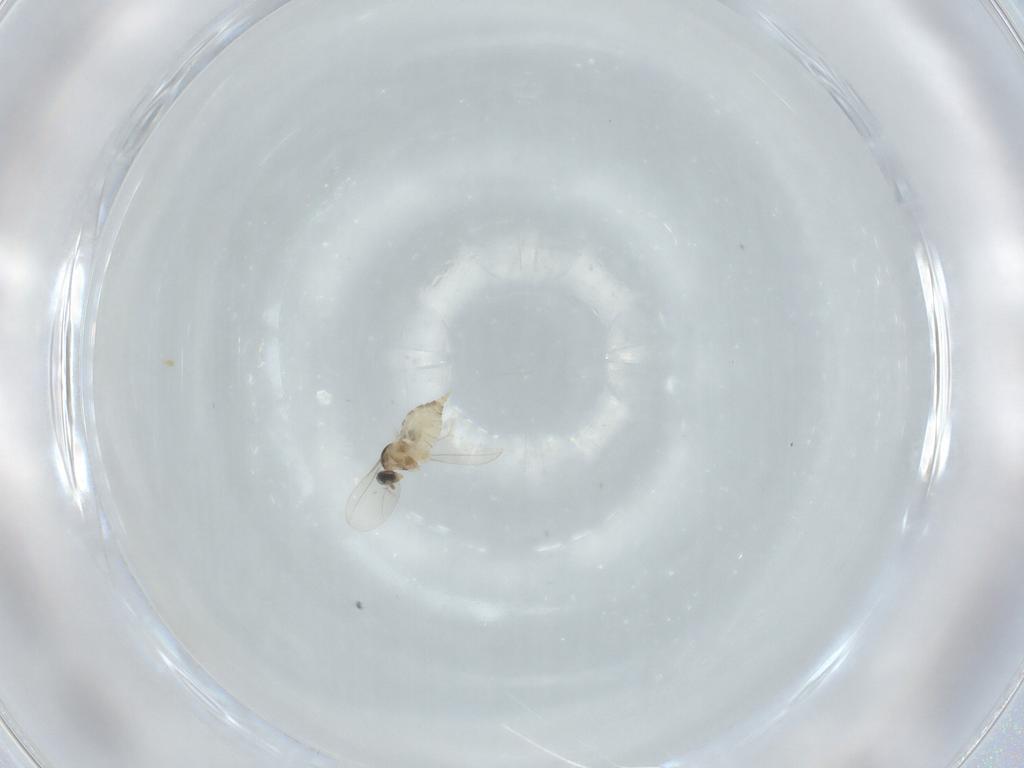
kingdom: Animalia
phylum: Arthropoda
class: Insecta
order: Diptera
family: Cecidomyiidae
